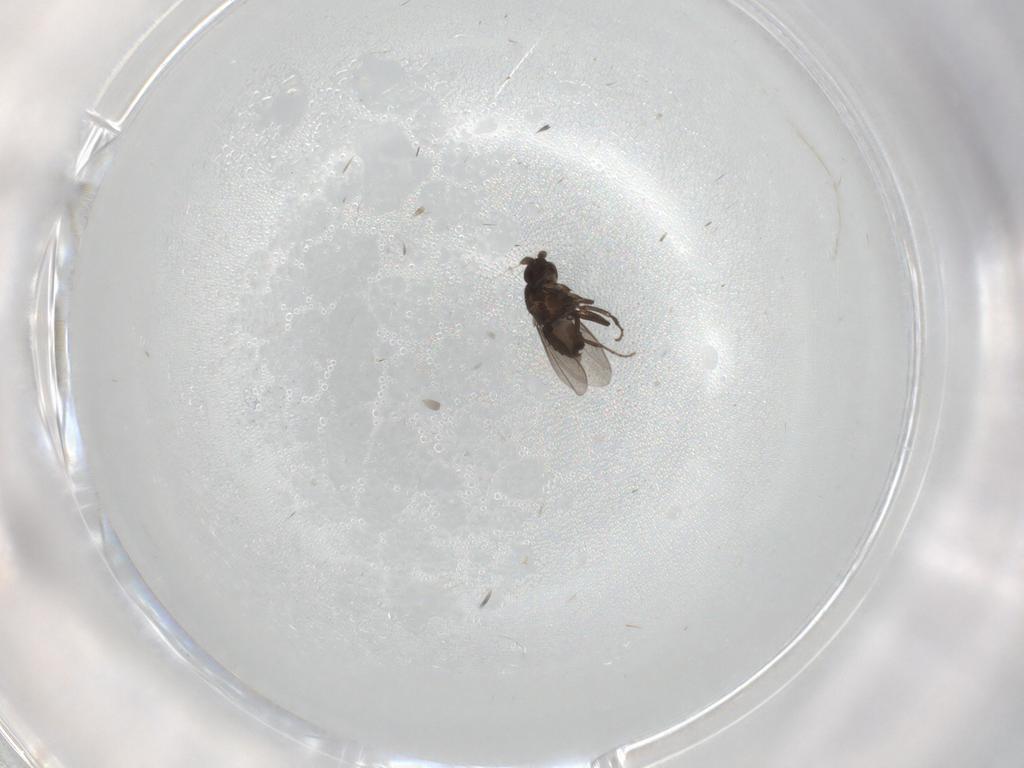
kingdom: Animalia
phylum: Arthropoda
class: Insecta
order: Diptera
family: Sphaeroceridae
